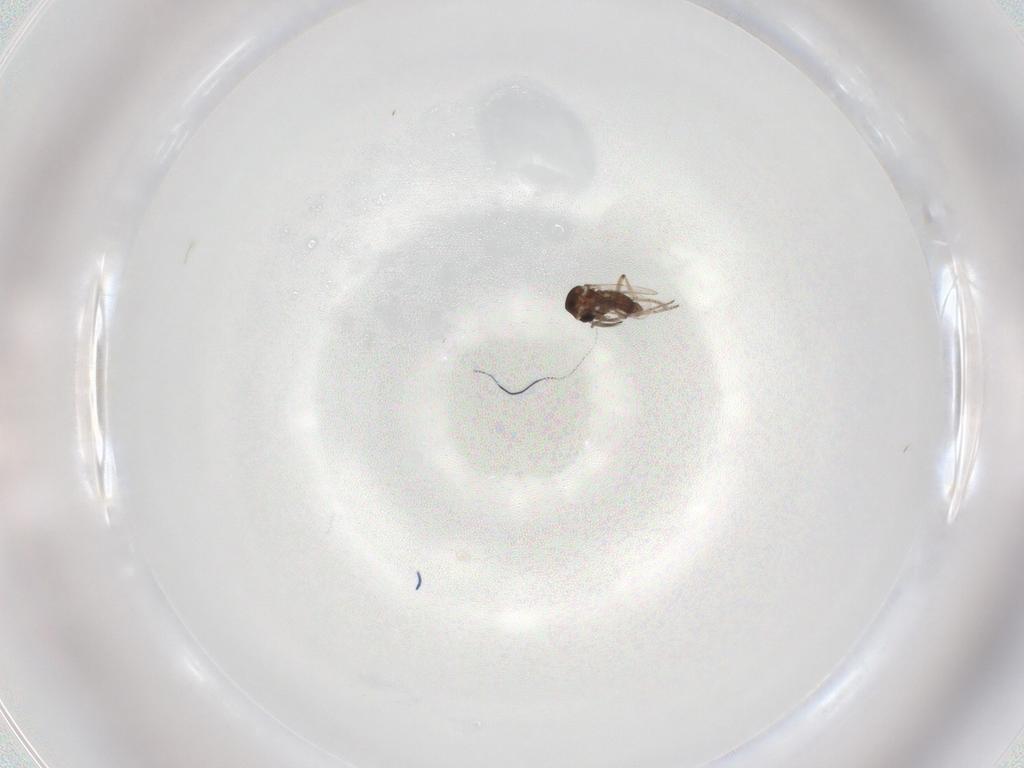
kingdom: Animalia
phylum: Arthropoda
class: Insecta
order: Diptera
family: Ceratopogonidae
